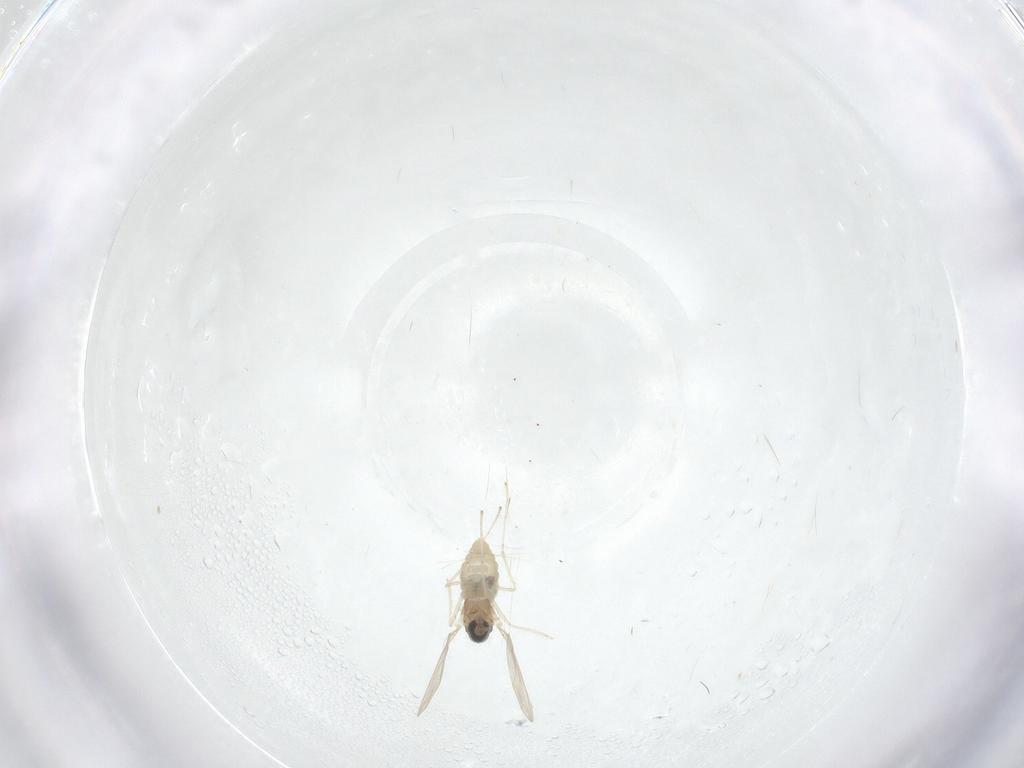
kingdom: Animalia
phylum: Arthropoda
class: Insecta
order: Diptera
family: Cecidomyiidae
